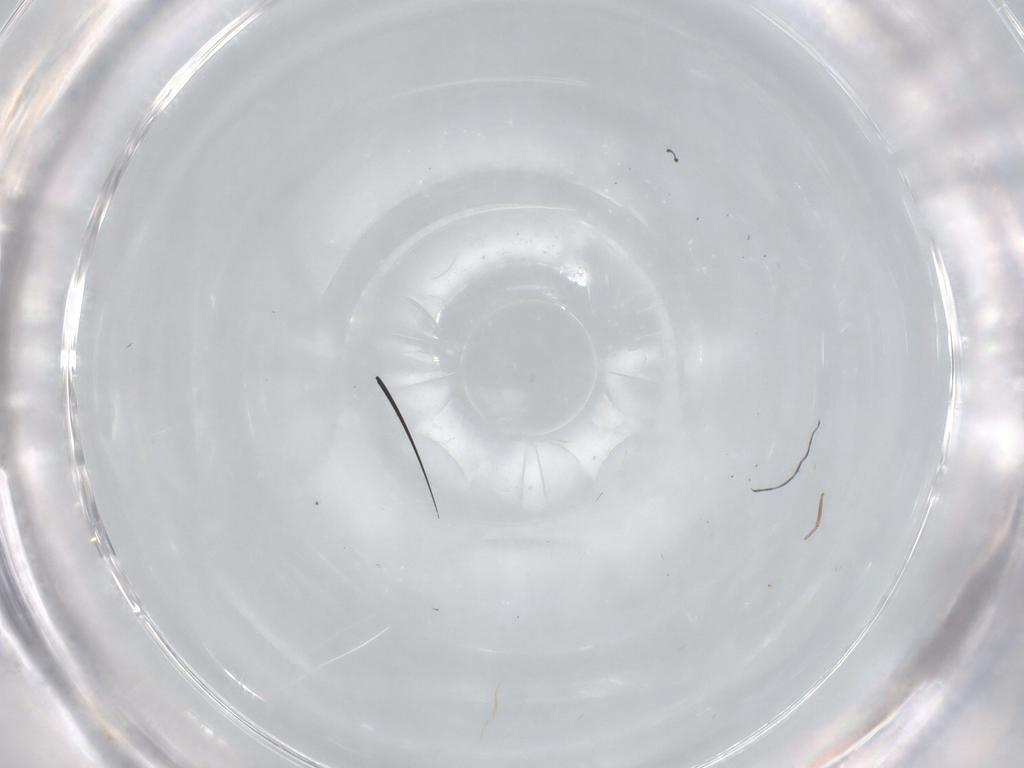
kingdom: Animalia
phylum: Arthropoda
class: Insecta
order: Diptera
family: Ceratopogonidae
